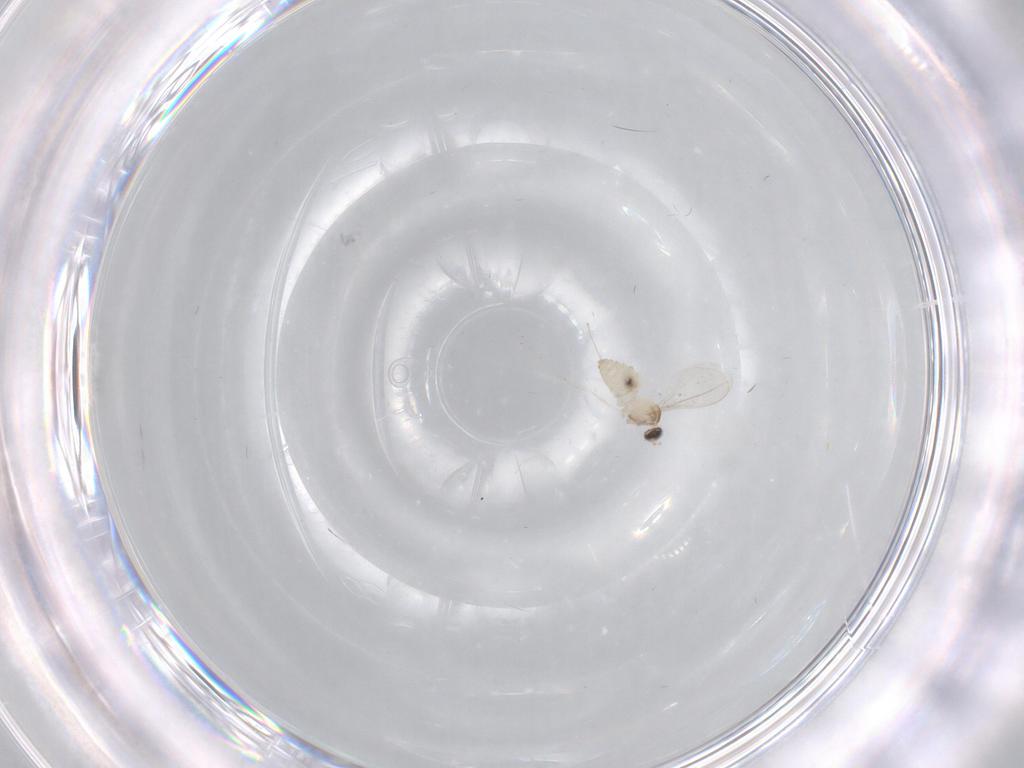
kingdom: Animalia
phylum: Arthropoda
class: Insecta
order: Diptera
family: Cecidomyiidae
